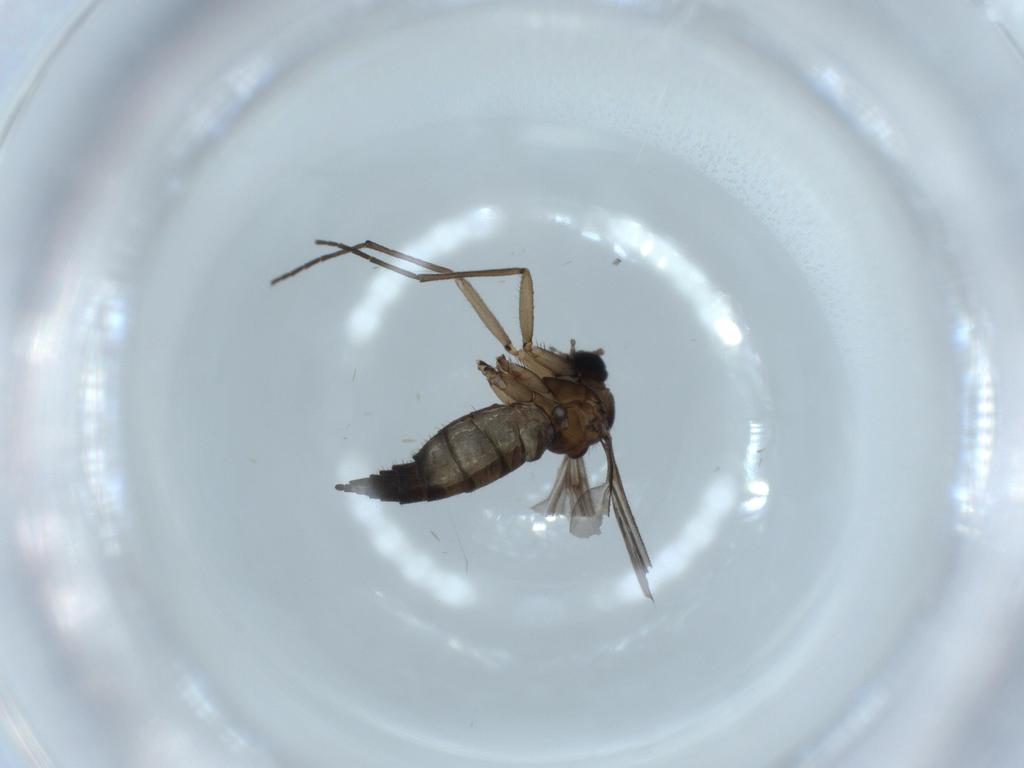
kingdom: Animalia
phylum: Arthropoda
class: Insecta
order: Diptera
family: Sciaridae
